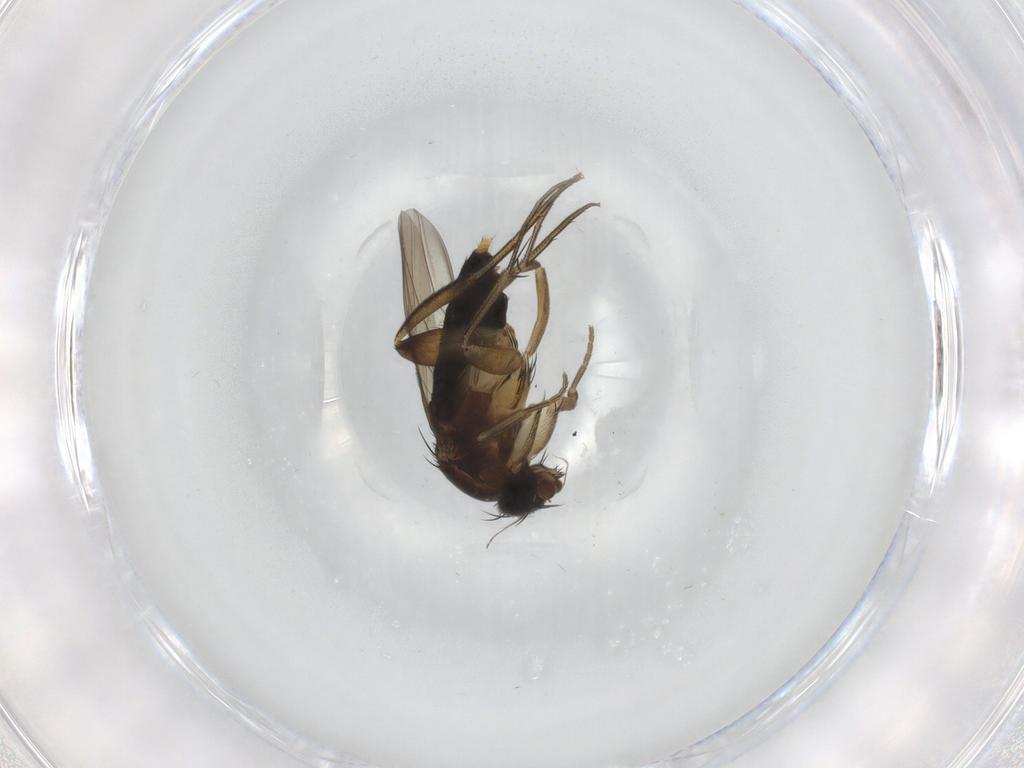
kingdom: Animalia
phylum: Arthropoda
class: Insecta
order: Diptera
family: Phoridae
